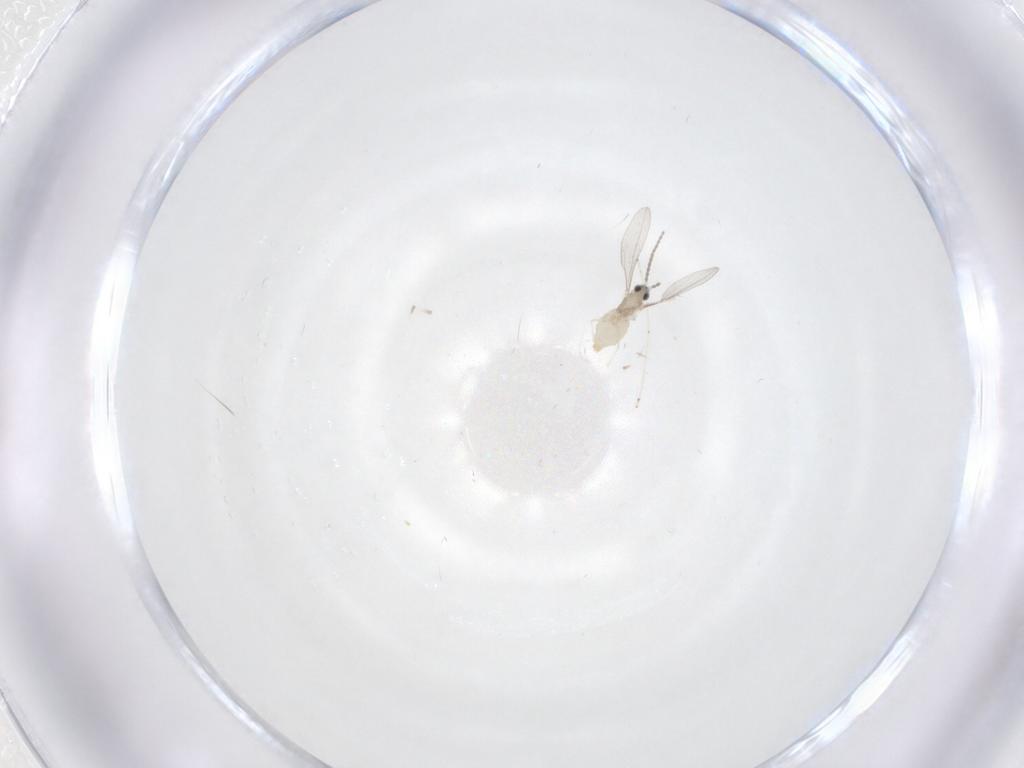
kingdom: Animalia
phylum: Arthropoda
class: Insecta
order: Diptera
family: Cecidomyiidae
